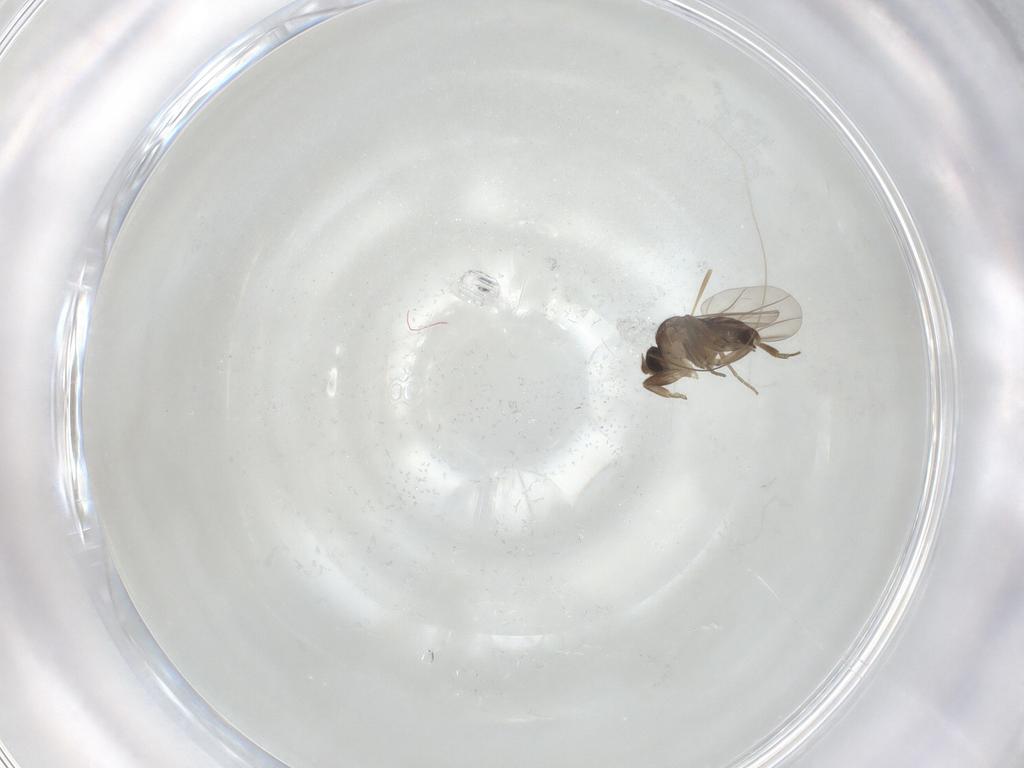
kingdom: Animalia
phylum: Arthropoda
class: Insecta
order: Diptera
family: Phoridae
